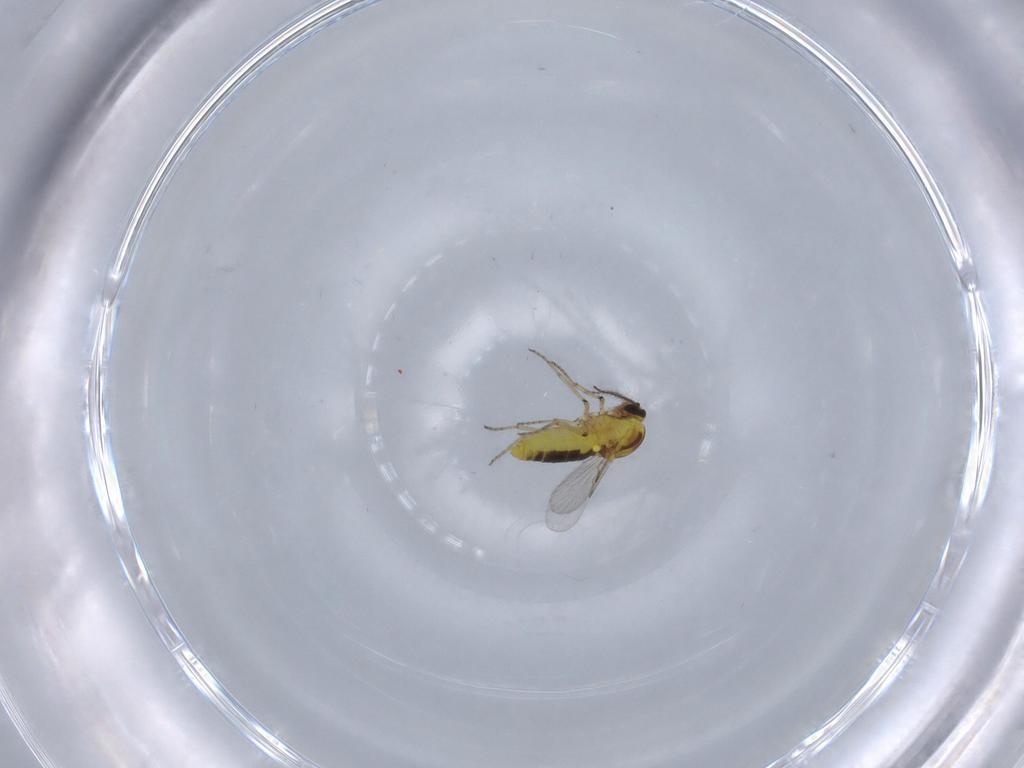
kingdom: Animalia
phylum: Arthropoda
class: Insecta
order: Diptera
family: Ceratopogonidae
